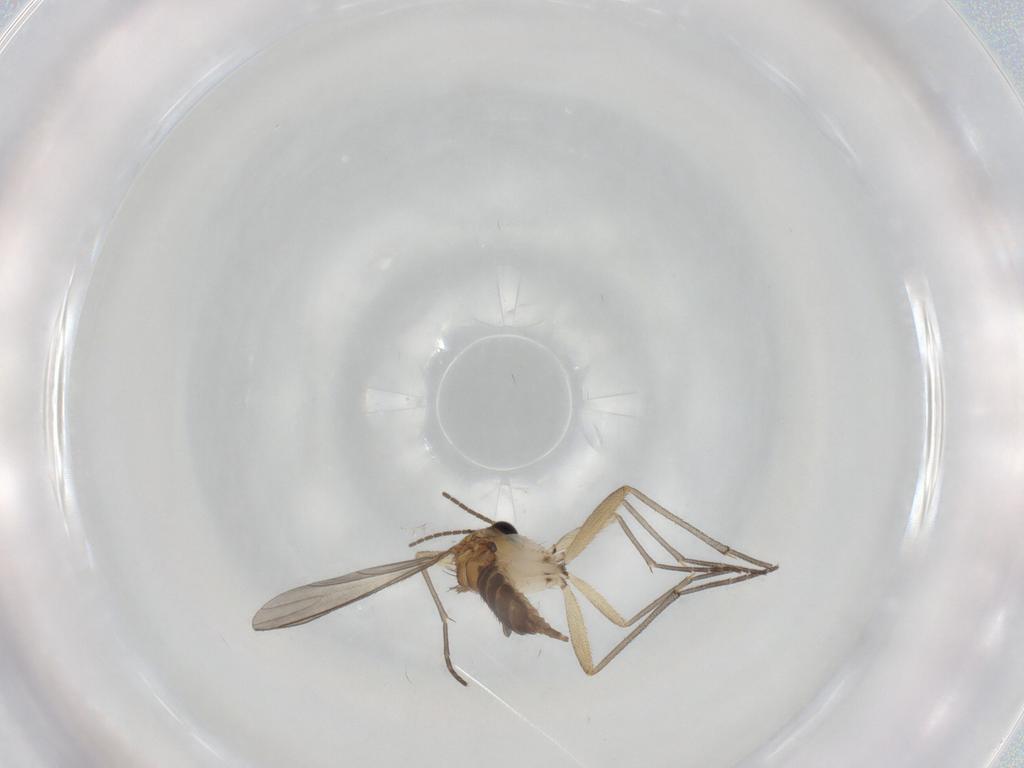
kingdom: Animalia
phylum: Arthropoda
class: Insecta
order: Diptera
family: Sciaridae
